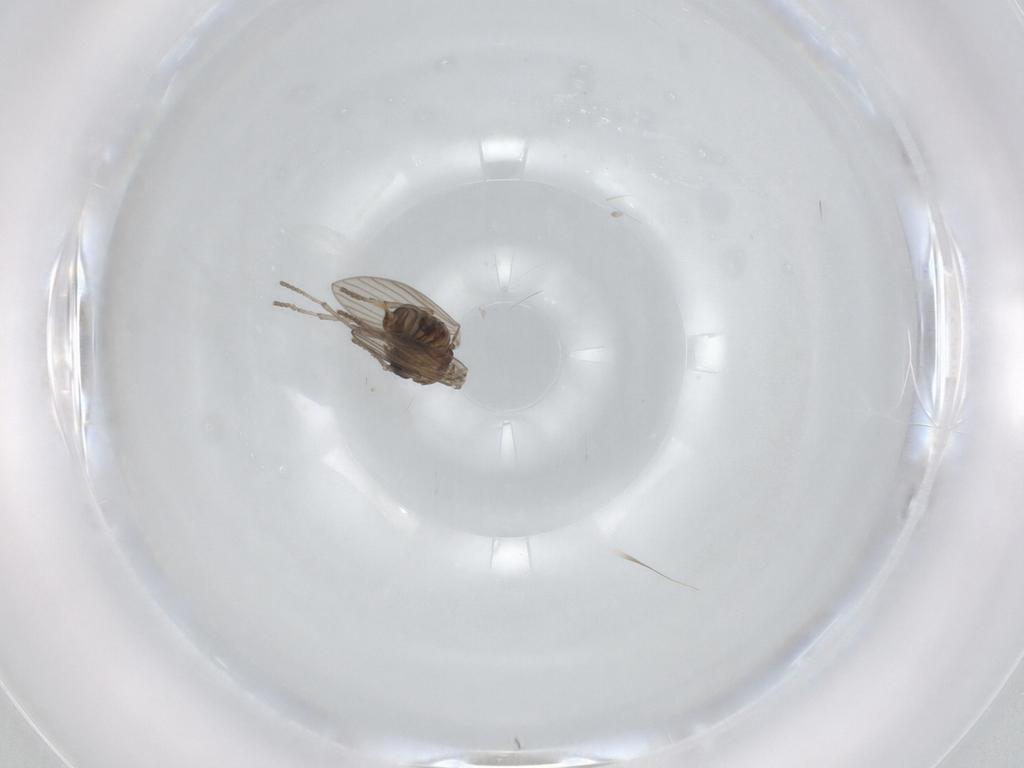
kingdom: Animalia
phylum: Arthropoda
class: Insecta
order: Diptera
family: Psychodidae
